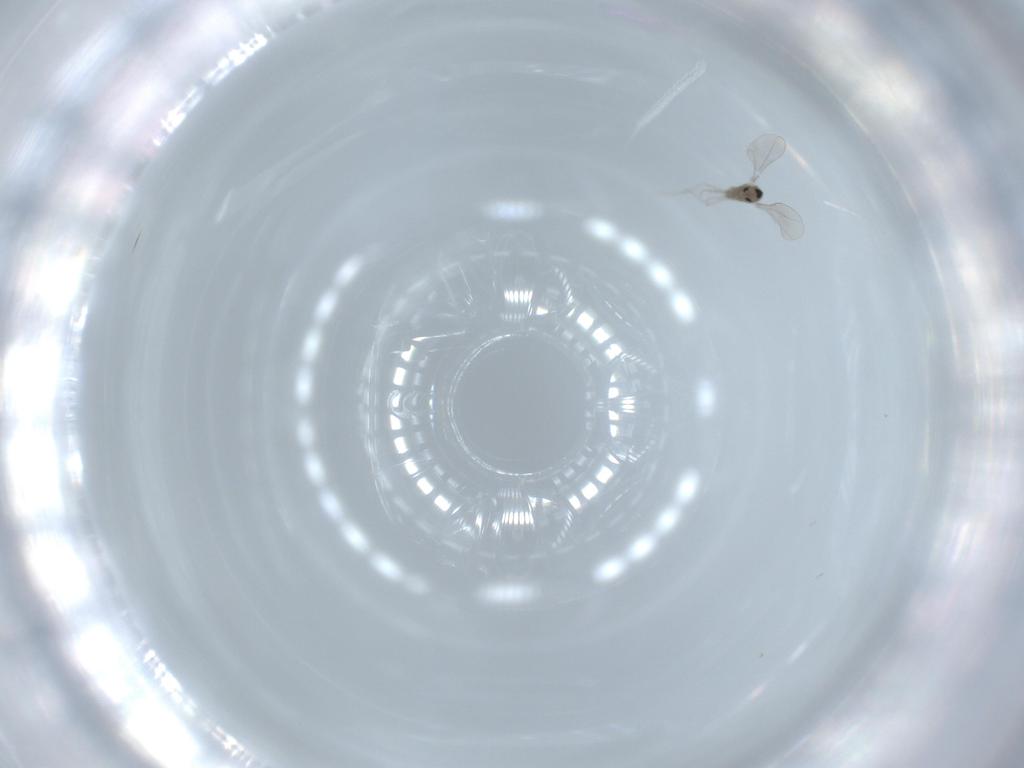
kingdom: Animalia
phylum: Arthropoda
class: Insecta
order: Diptera
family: Cecidomyiidae
